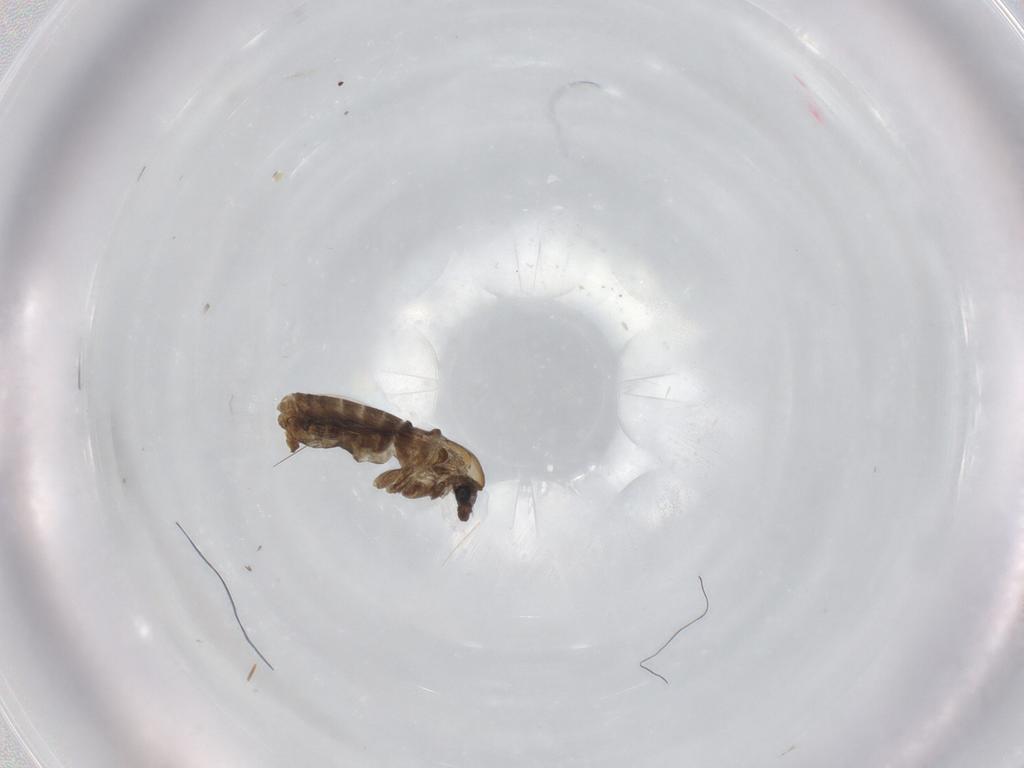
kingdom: Animalia
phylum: Arthropoda
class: Insecta
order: Diptera
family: Chironomidae
